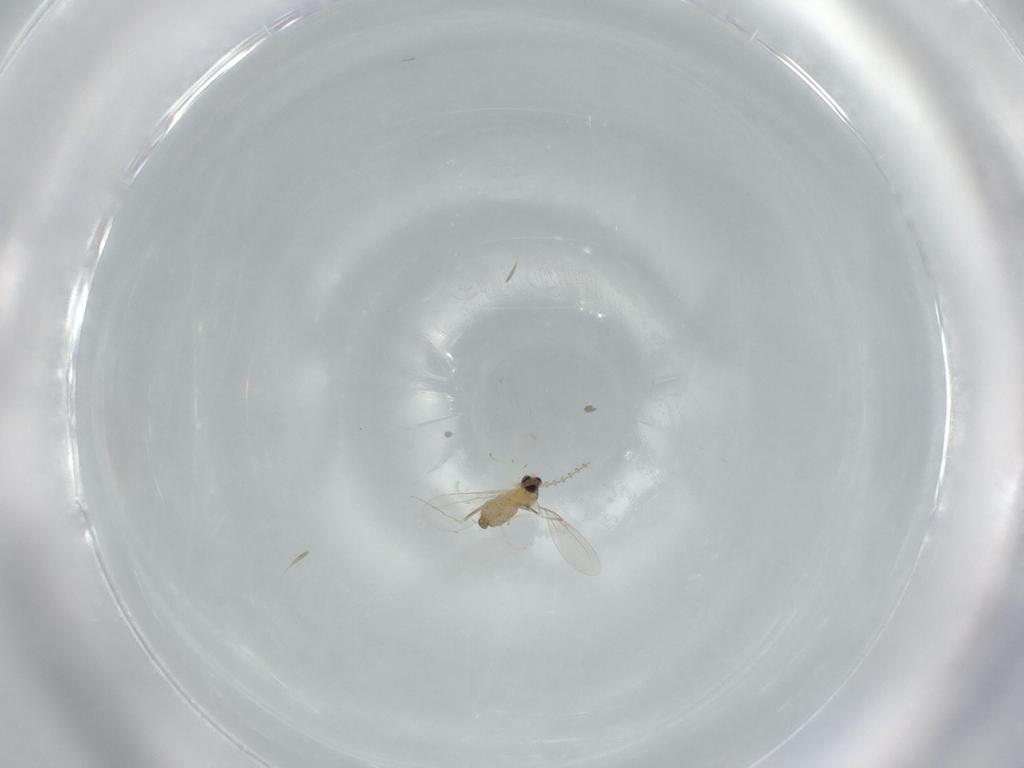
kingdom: Animalia
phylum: Arthropoda
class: Insecta
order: Diptera
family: Cecidomyiidae
